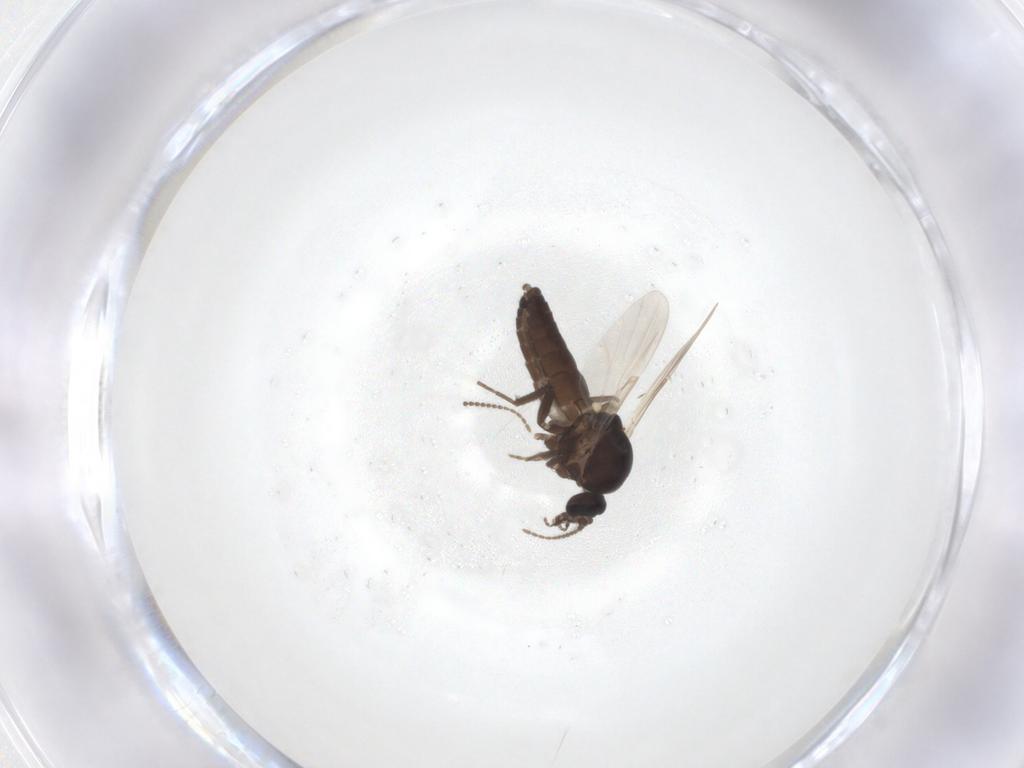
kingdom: Animalia
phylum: Arthropoda
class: Insecta
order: Diptera
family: Ceratopogonidae
